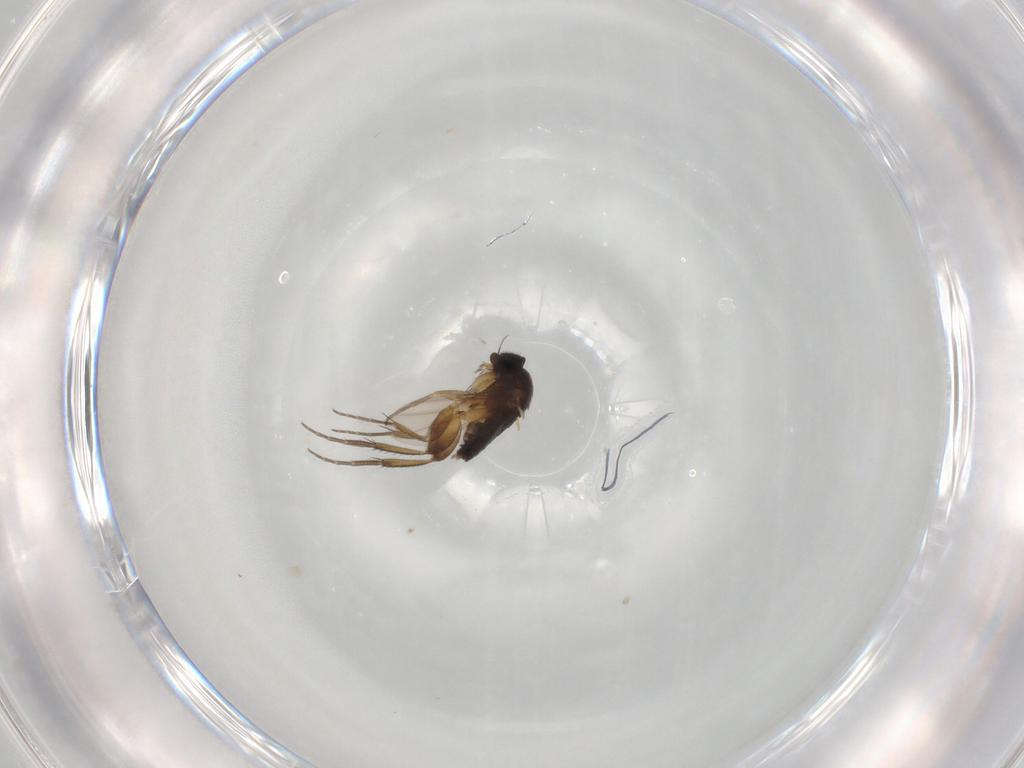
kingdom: Animalia
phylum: Arthropoda
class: Insecta
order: Diptera
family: Phoridae
